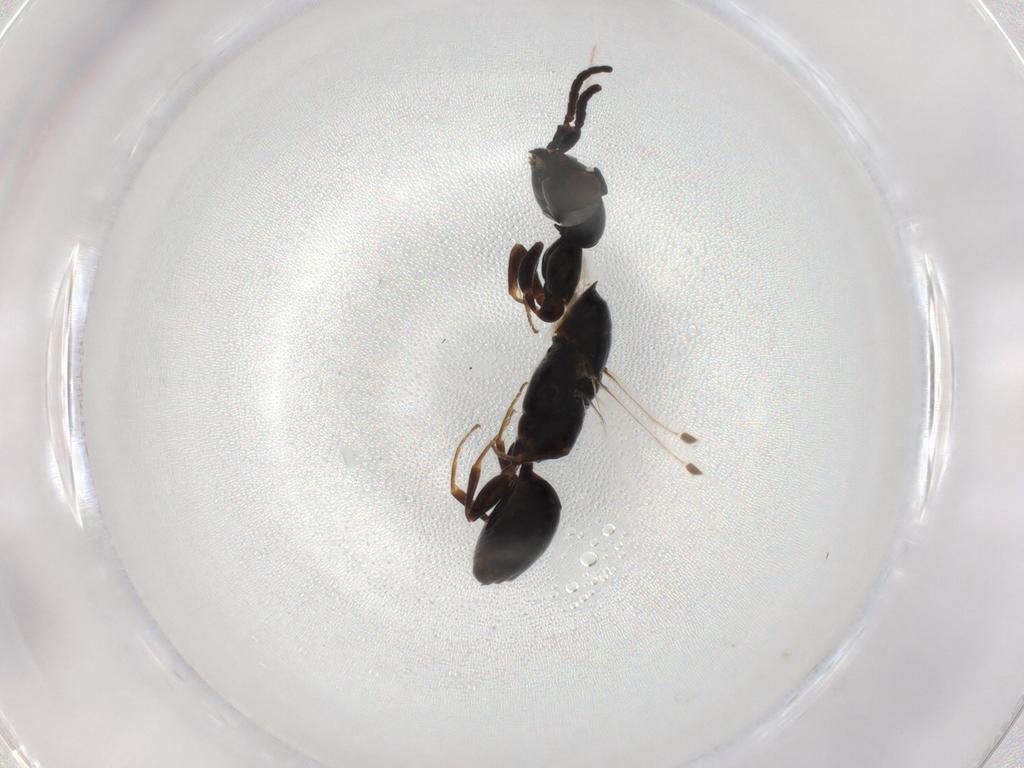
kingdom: Animalia
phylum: Arthropoda
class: Insecta
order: Hymenoptera
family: Bethylidae
